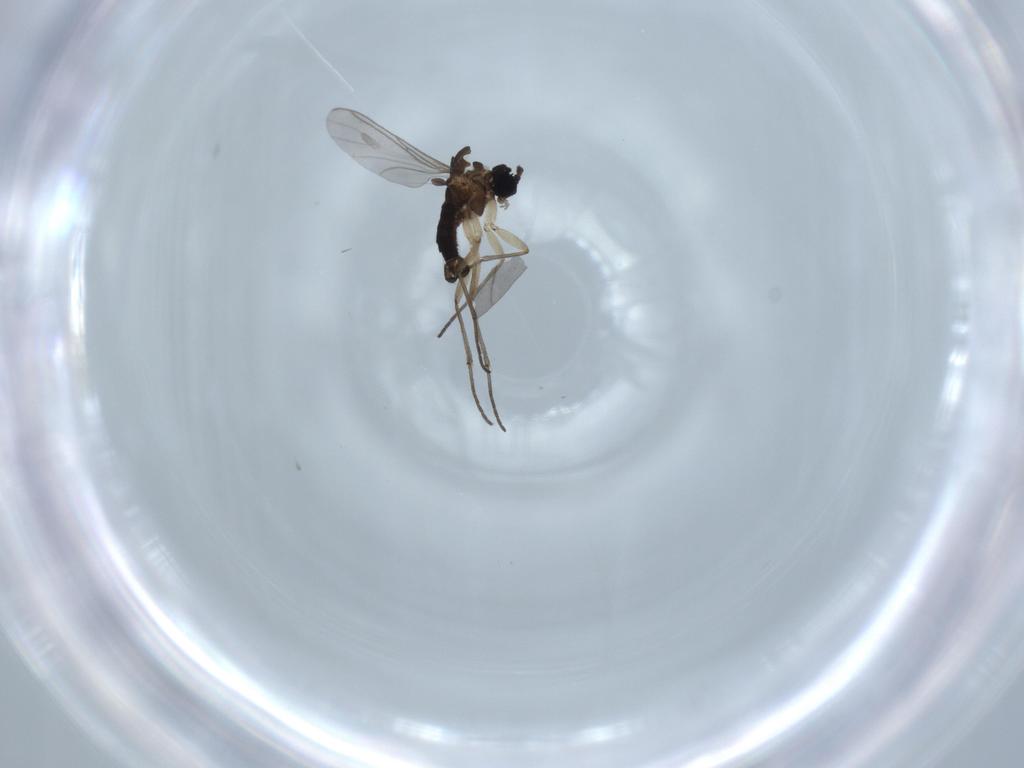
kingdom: Animalia
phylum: Arthropoda
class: Insecta
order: Diptera
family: Sciaridae
